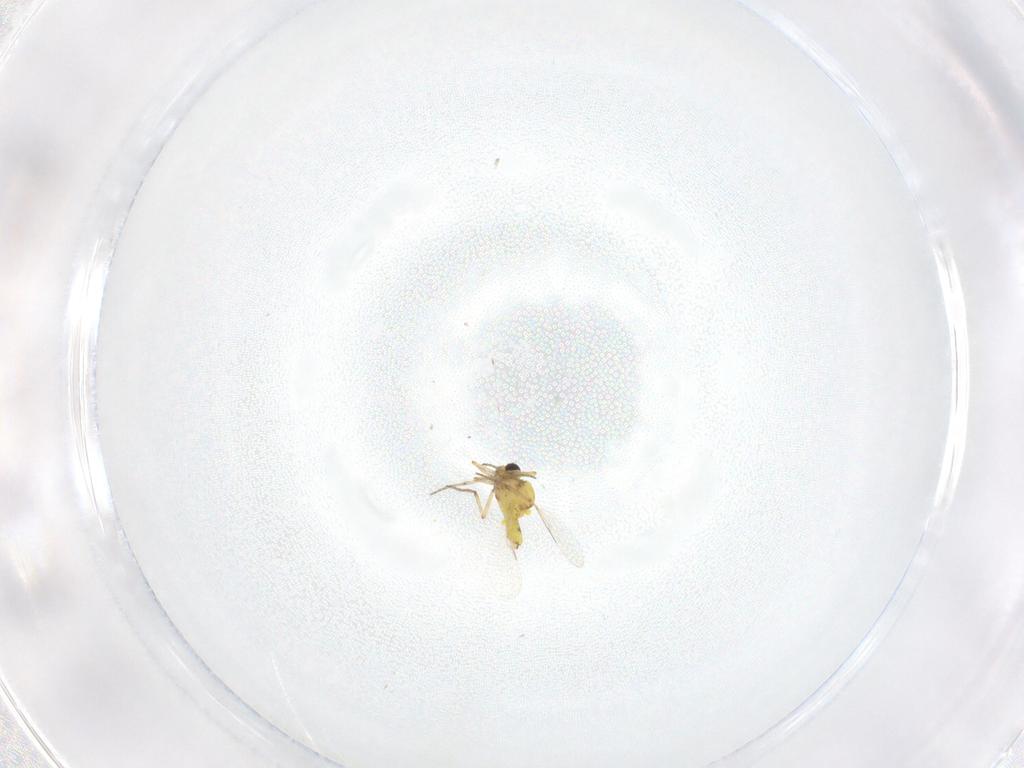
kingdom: Animalia
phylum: Arthropoda
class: Insecta
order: Diptera
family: Ceratopogonidae
